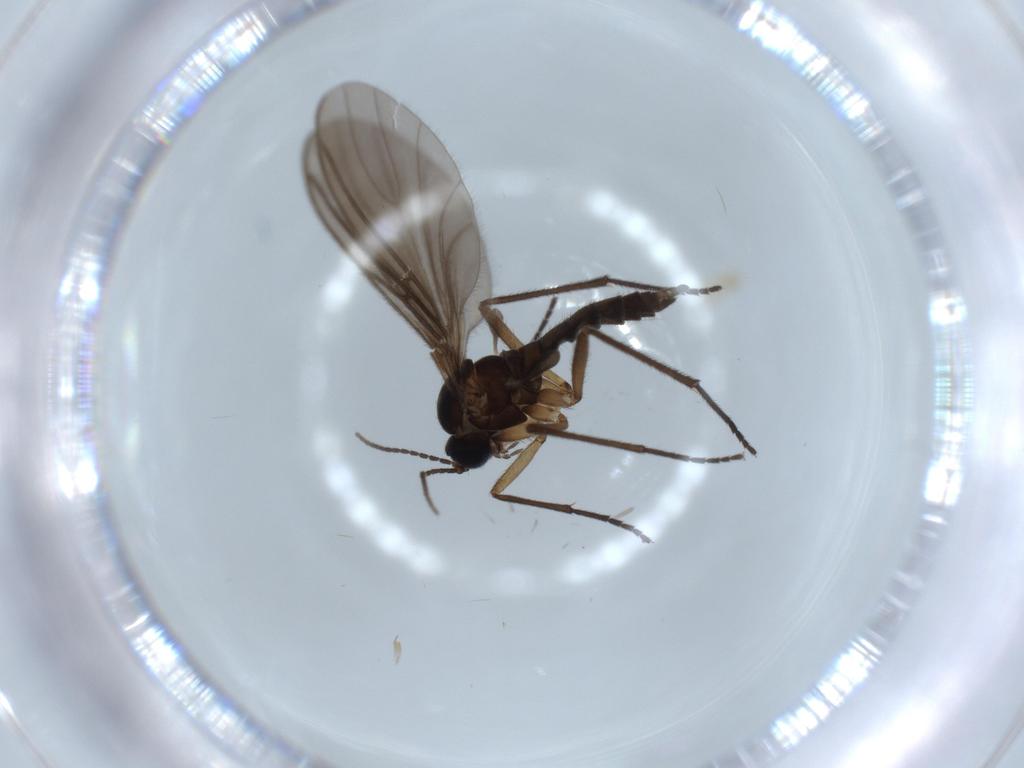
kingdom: Animalia
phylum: Arthropoda
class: Insecta
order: Diptera
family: Sciaridae
